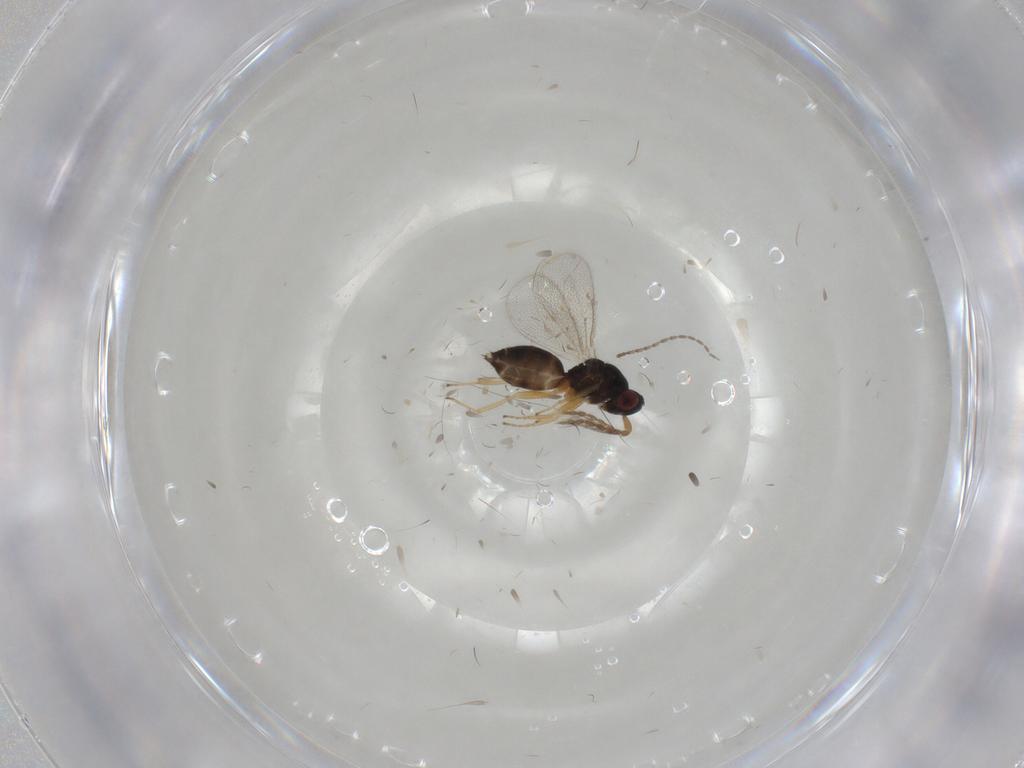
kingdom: Animalia
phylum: Arthropoda
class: Insecta
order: Hymenoptera
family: Eulophidae
